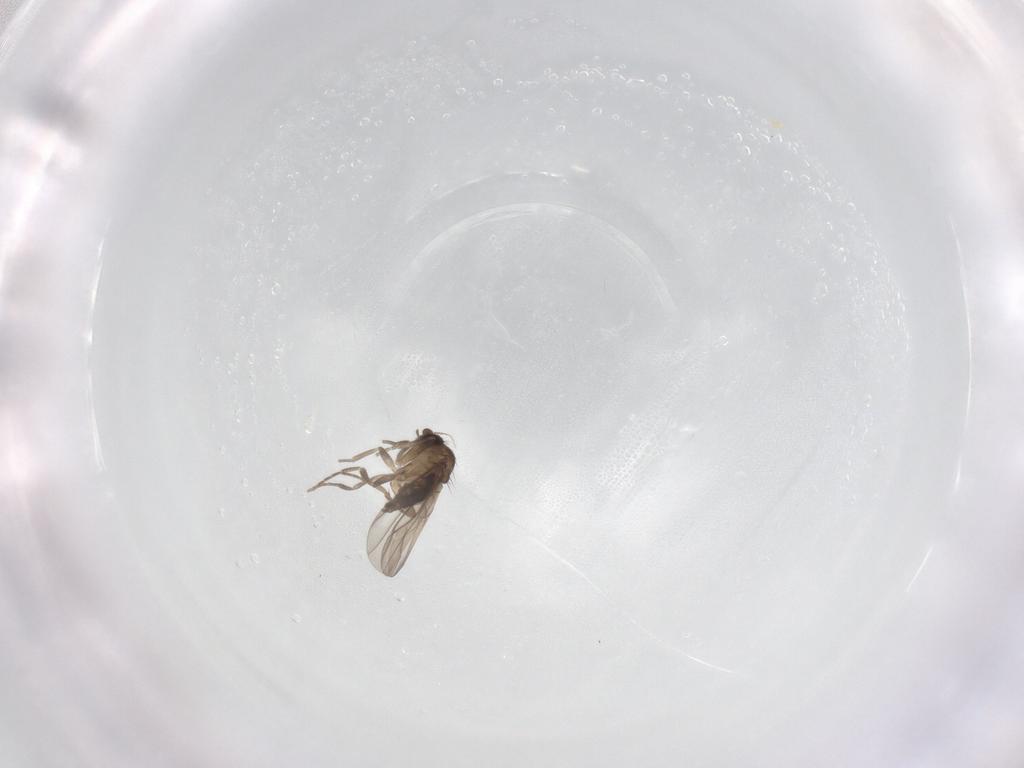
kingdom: Animalia
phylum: Arthropoda
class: Insecta
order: Diptera
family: Phoridae
